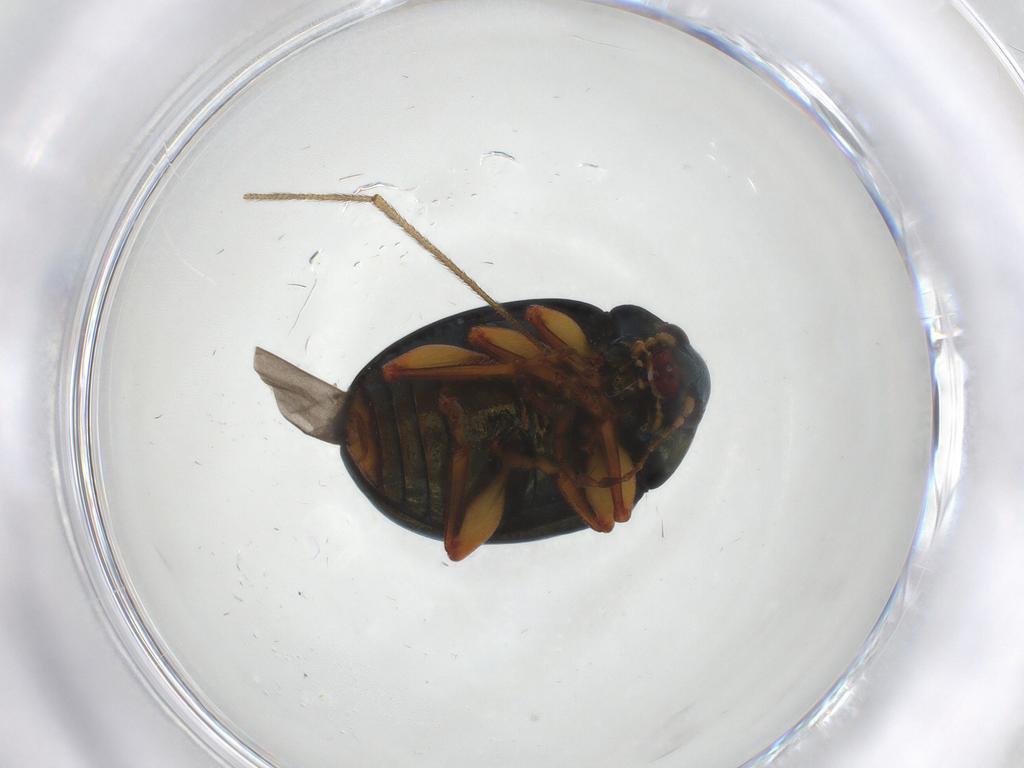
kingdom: Animalia
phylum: Arthropoda
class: Insecta
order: Coleoptera
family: Chrysomelidae
